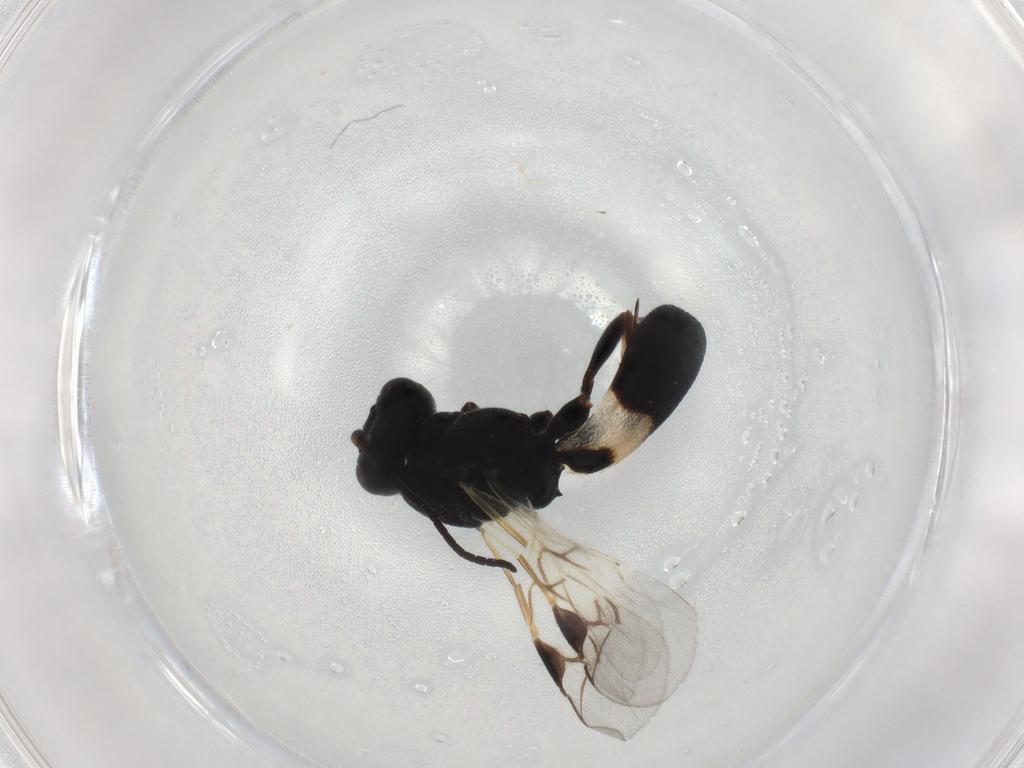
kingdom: Animalia
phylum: Arthropoda
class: Insecta
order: Hymenoptera
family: Braconidae
